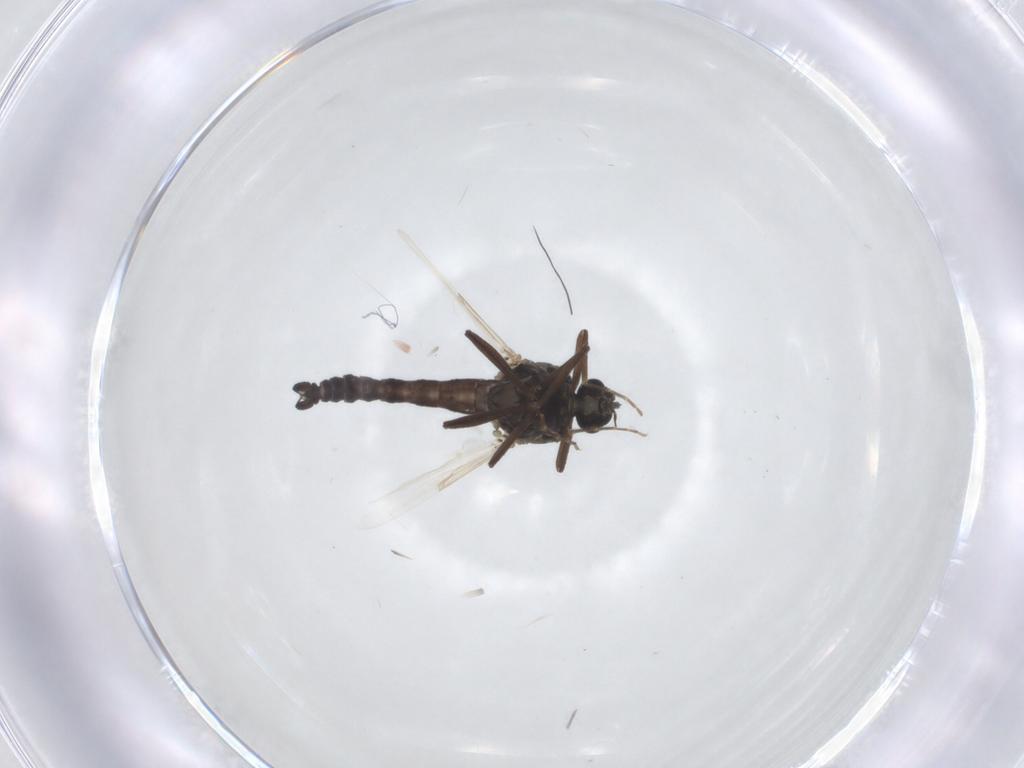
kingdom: Animalia
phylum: Arthropoda
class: Insecta
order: Diptera
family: Ceratopogonidae
